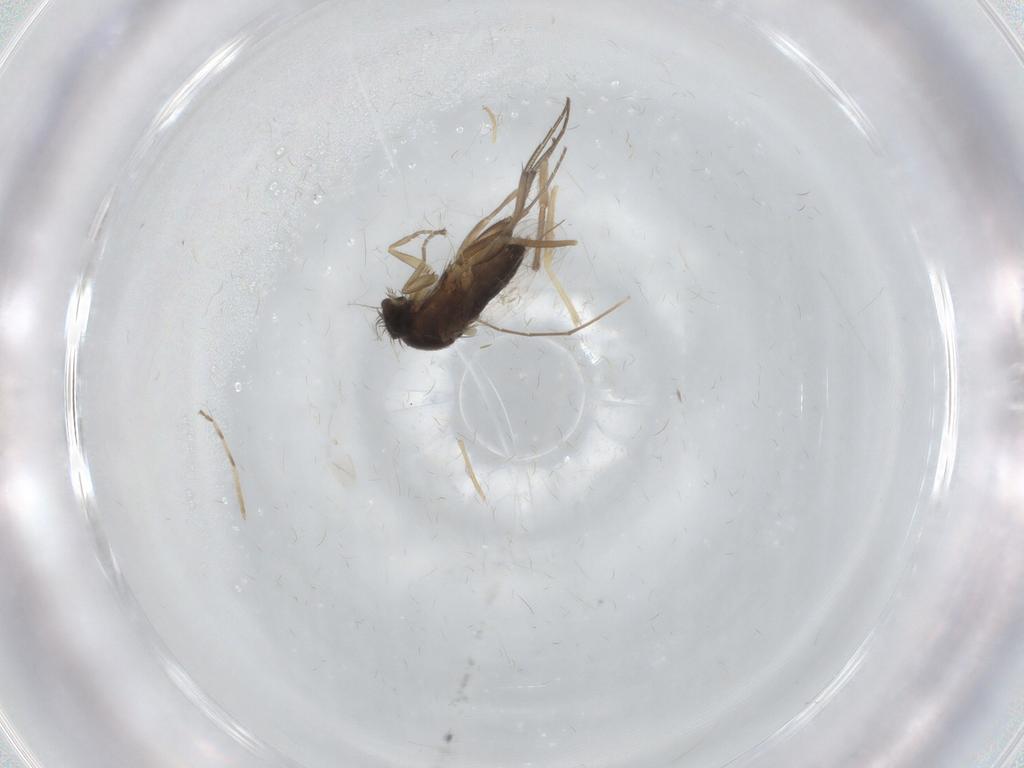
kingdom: Animalia
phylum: Arthropoda
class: Insecta
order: Diptera
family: Phoridae
